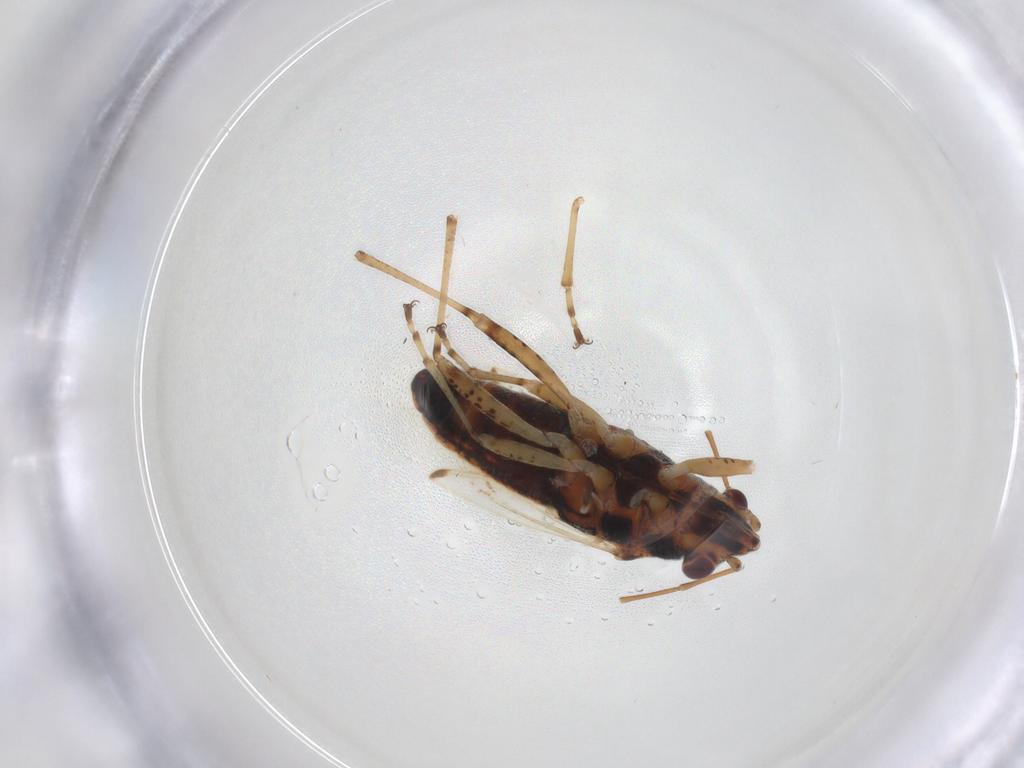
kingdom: Animalia
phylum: Arthropoda
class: Insecta
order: Hemiptera
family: Lygaeidae
